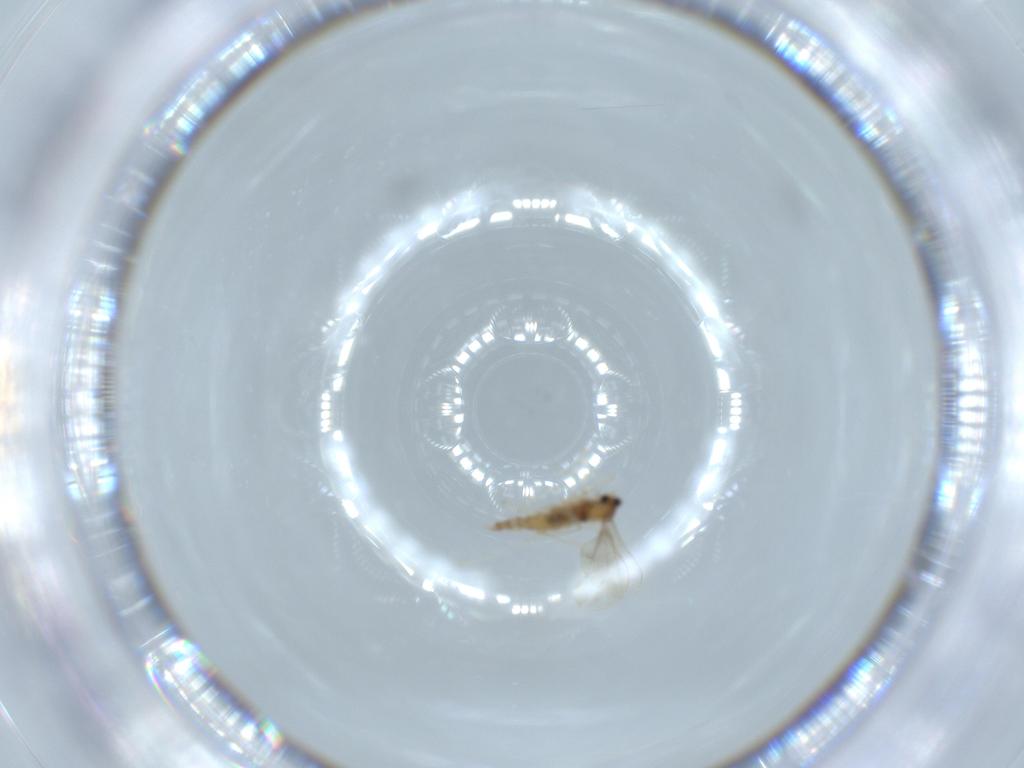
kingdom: Animalia
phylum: Arthropoda
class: Insecta
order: Diptera
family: Cecidomyiidae
